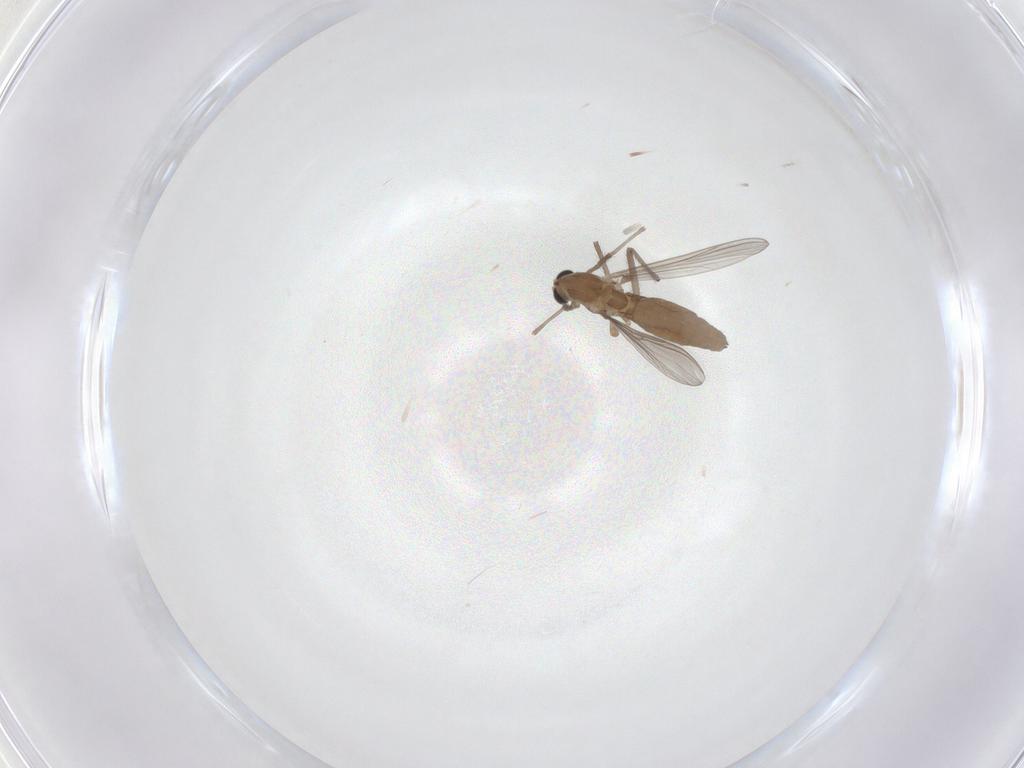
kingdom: Animalia
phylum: Arthropoda
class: Insecta
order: Diptera
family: Chironomidae
